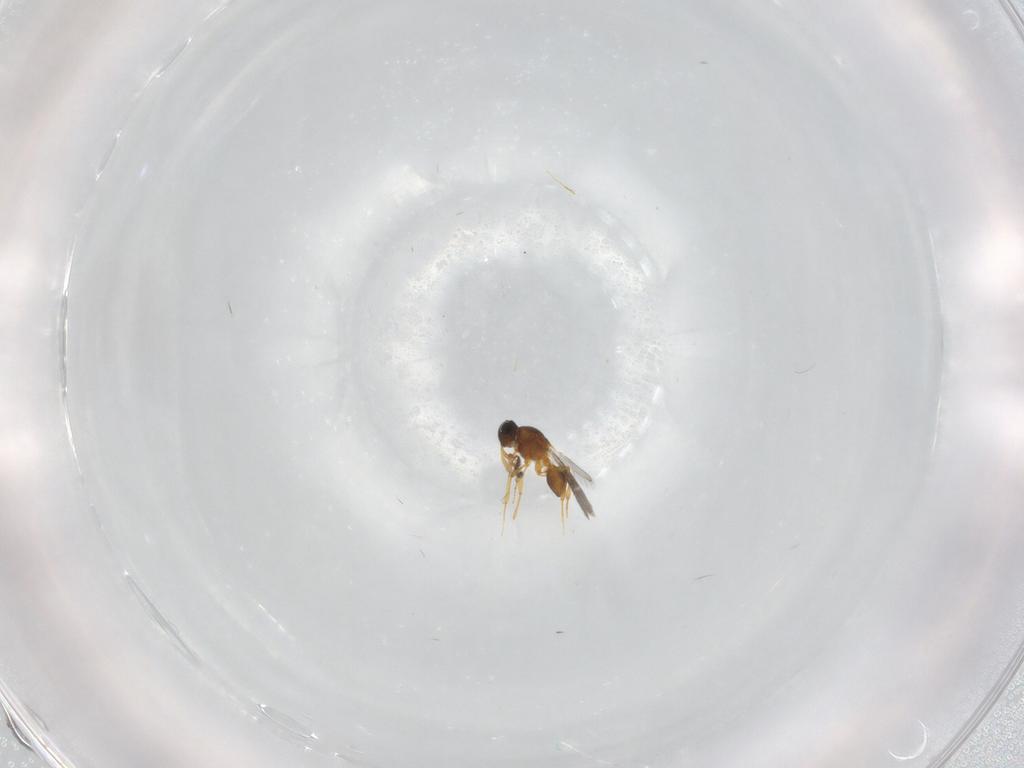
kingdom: Animalia
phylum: Arthropoda
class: Insecta
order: Hymenoptera
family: Platygastridae
